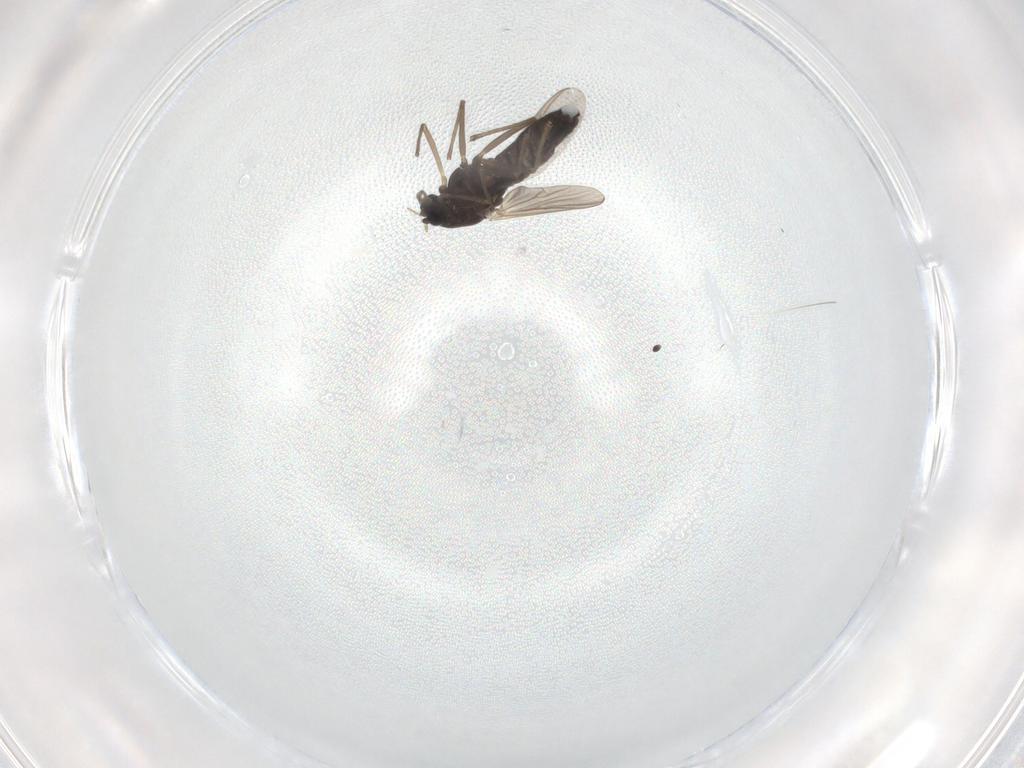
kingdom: Animalia
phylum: Arthropoda
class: Insecta
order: Diptera
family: Chironomidae
